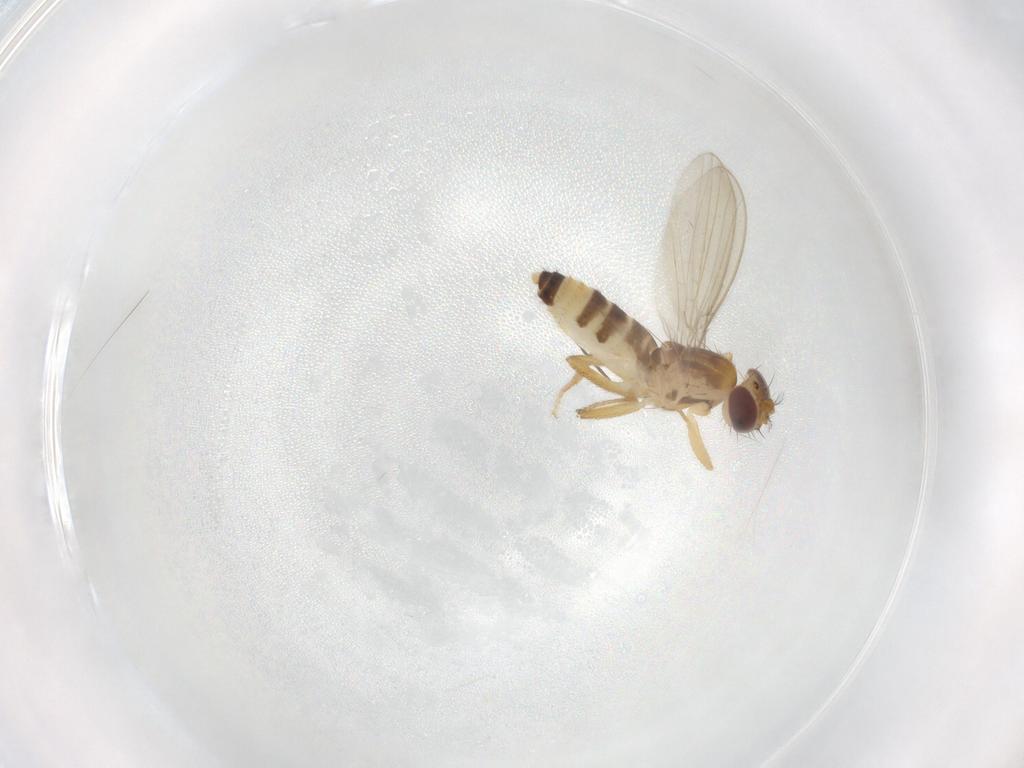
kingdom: Animalia
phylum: Arthropoda
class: Insecta
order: Diptera
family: Periscelididae
